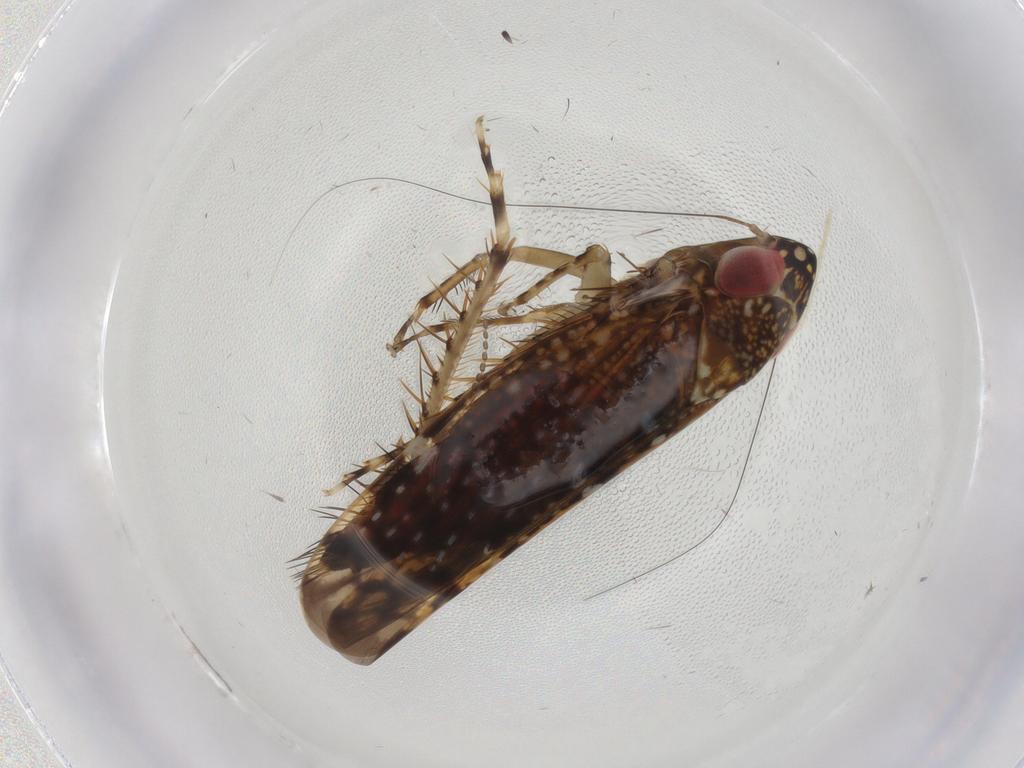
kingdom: Animalia
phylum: Arthropoda
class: Insecta
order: Hemiptera
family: Cicadellidae
